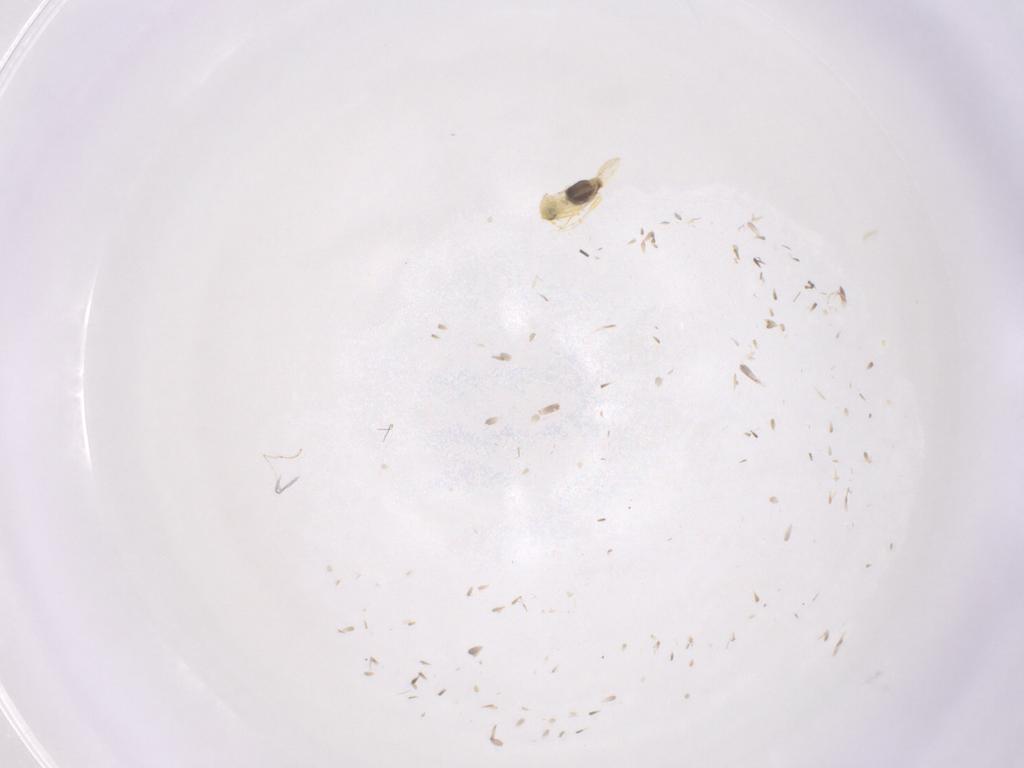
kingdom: Animalia
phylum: Arthropoda
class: Insecta
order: Hemiptera
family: Aleyrodidae
